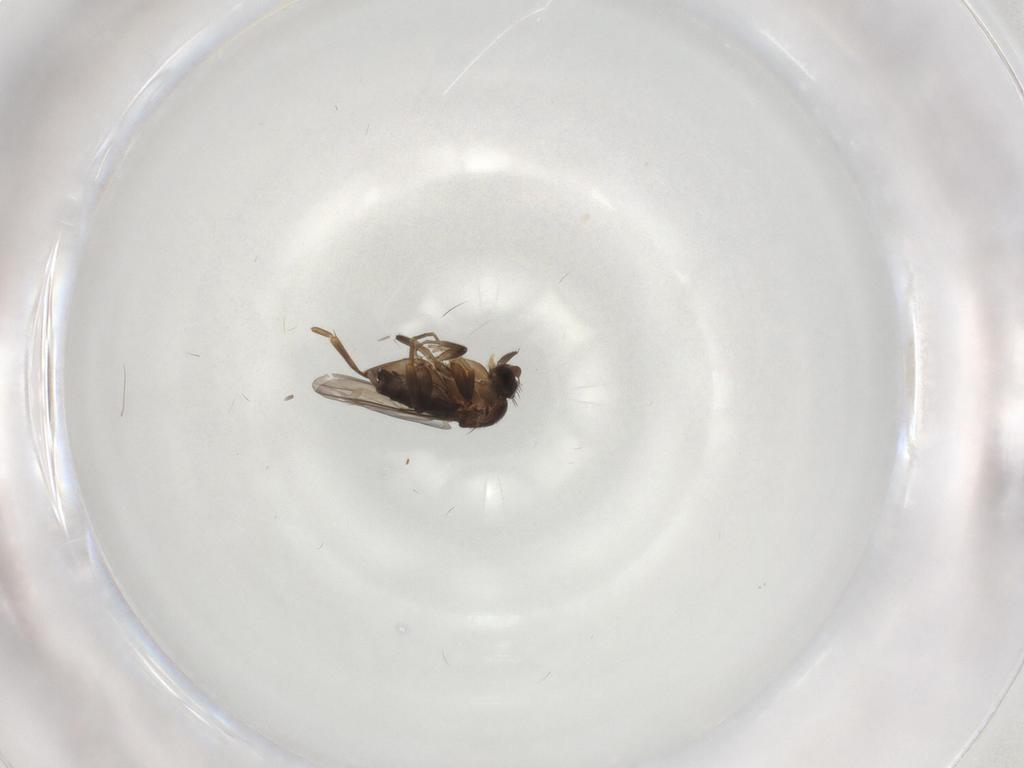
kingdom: Animalia
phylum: Arthropoda
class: Insecta
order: Diptera
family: Phoridae
